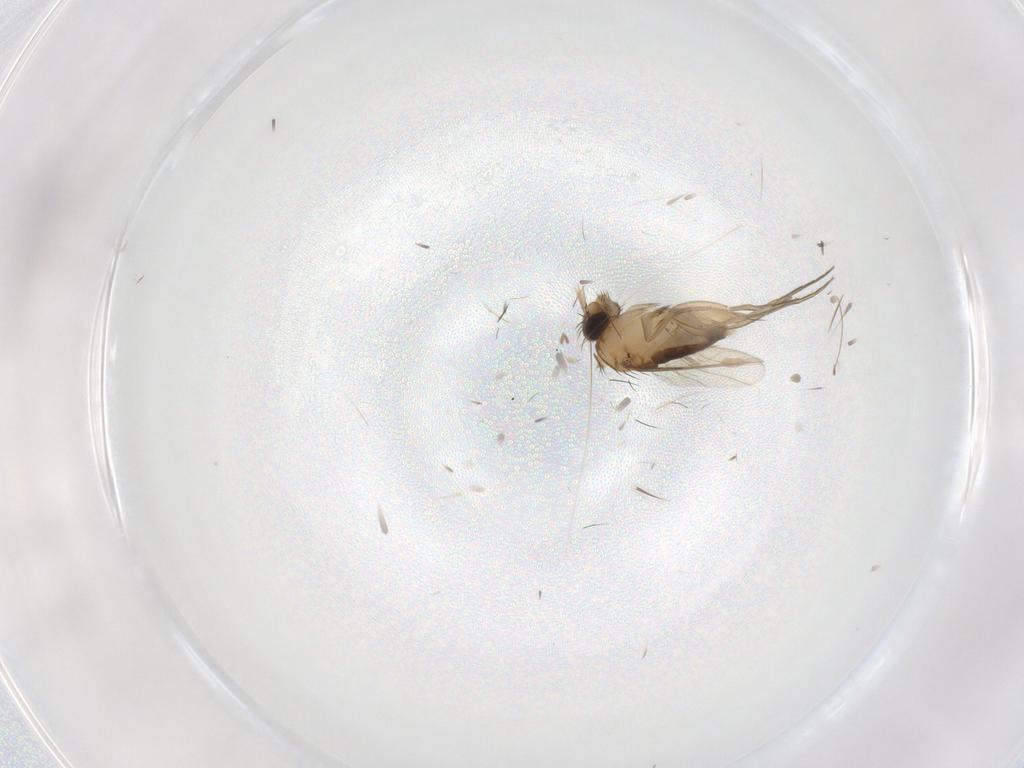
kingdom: Animalia
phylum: Arthropoda
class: Insecta
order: Diptera
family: Phoridae
